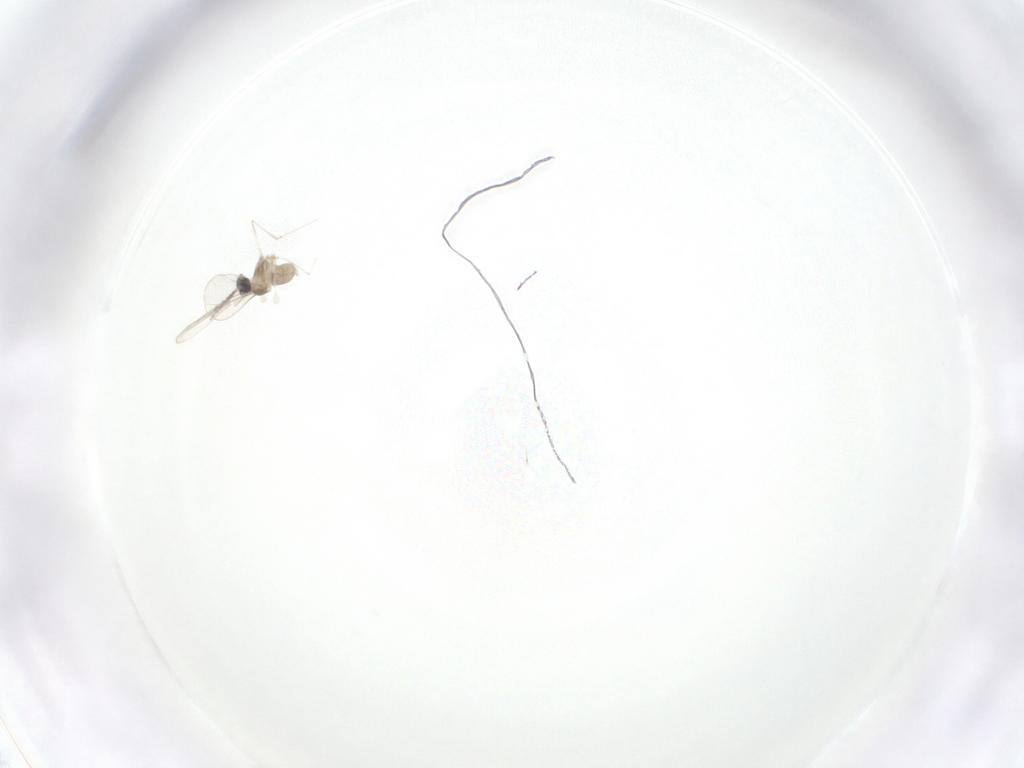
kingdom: Animalia
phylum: Arthropoda
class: Insecta
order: Diptera
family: Cecidomyiidae
